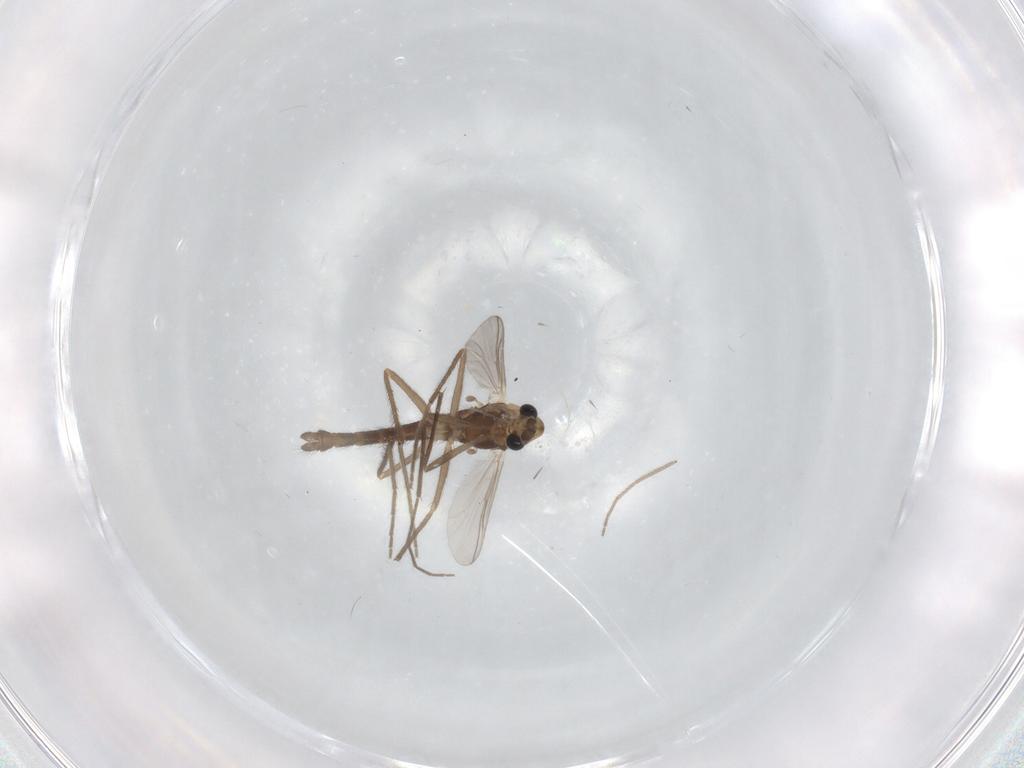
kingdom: Animalia
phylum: Arthropoda
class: Insecta
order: Diptera
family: Chironomidae
